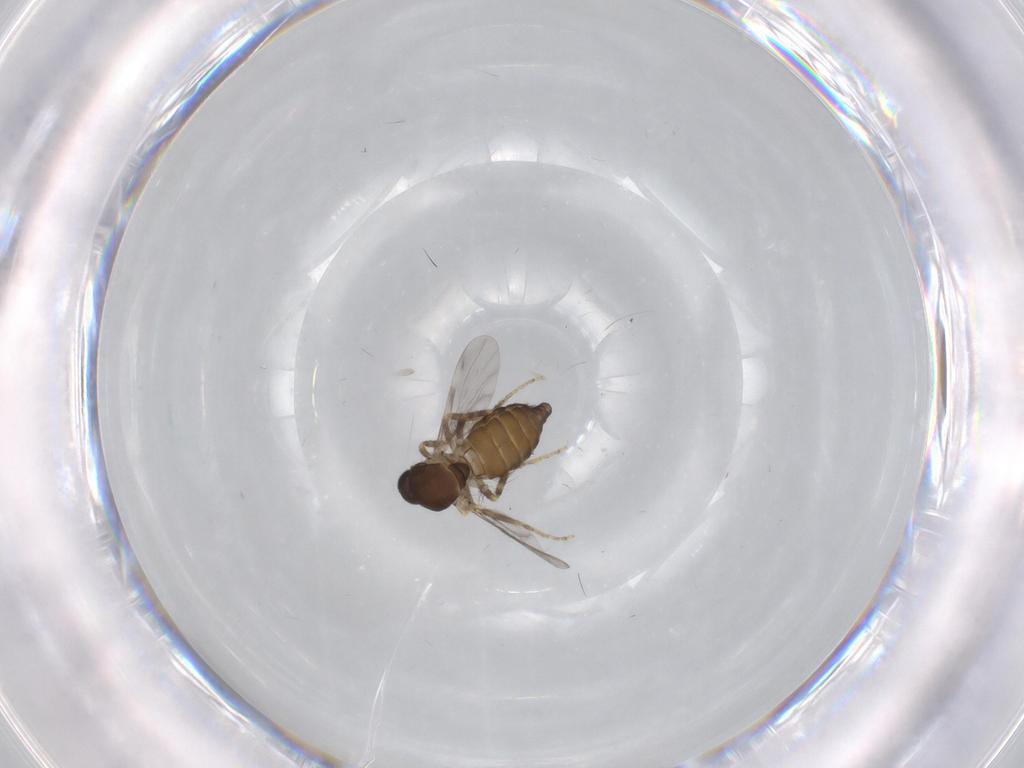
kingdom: Animalia
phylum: Arthropoda
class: Insecta
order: Diptera
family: Ceratopogonidae
